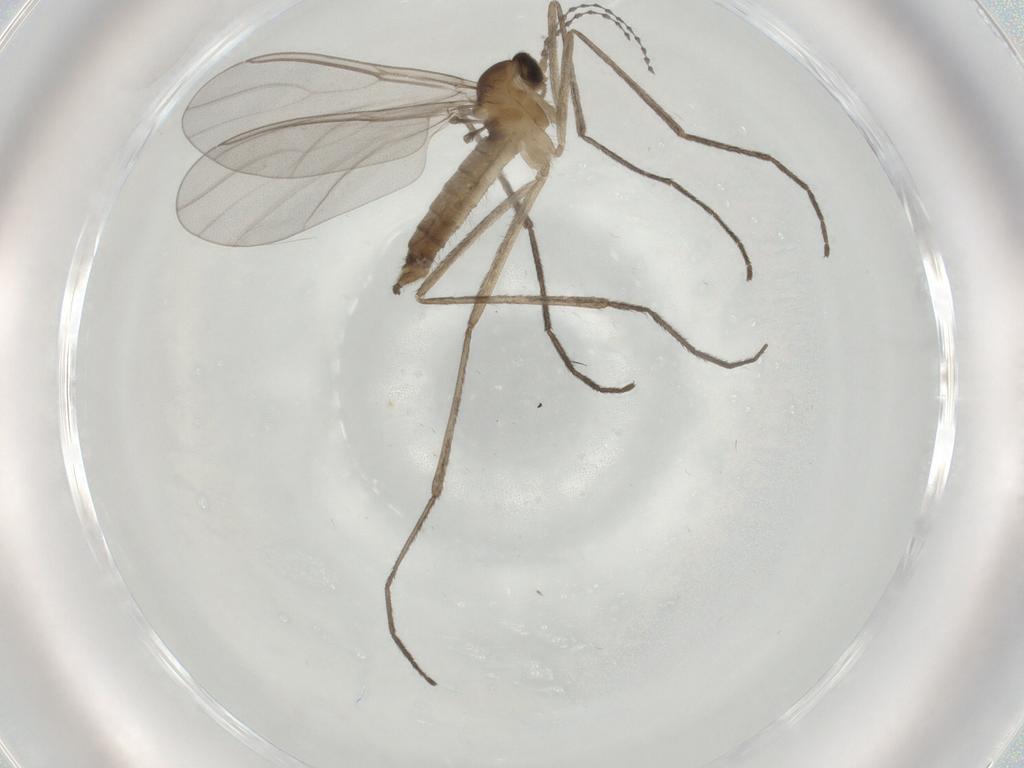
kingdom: Animalia
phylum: Arthropoda
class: Insecta
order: Diptera
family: Cecidomyiidae
